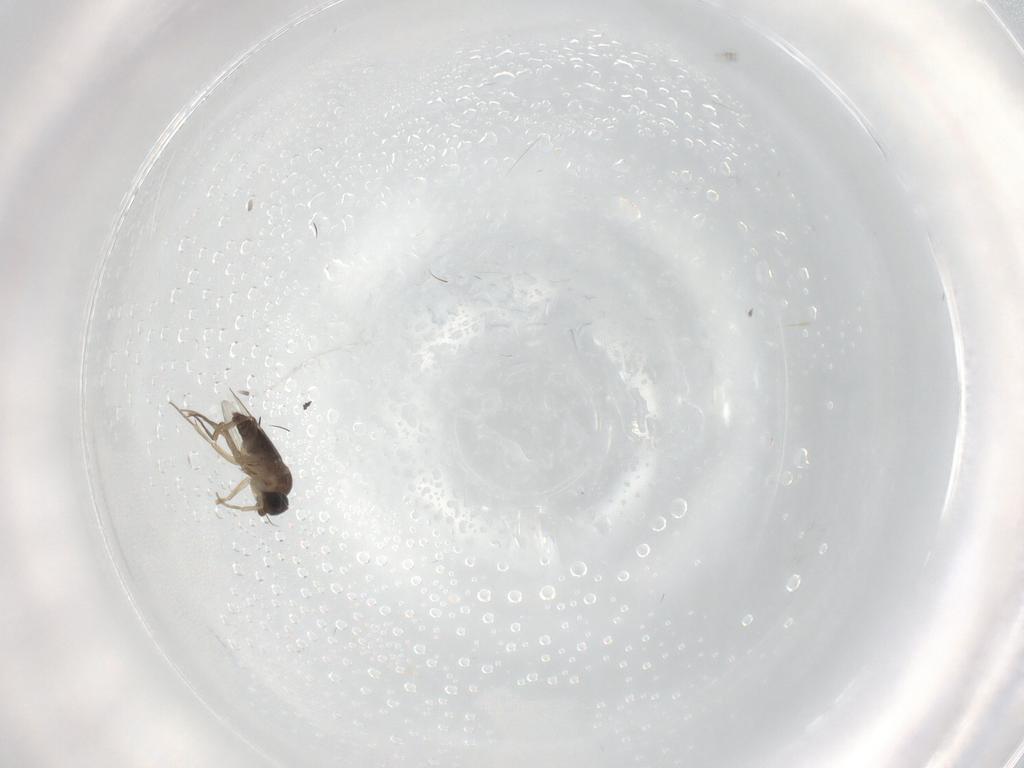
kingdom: Animalia
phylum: Arthropoda
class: Insecta
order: Diptera
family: Phoridae
